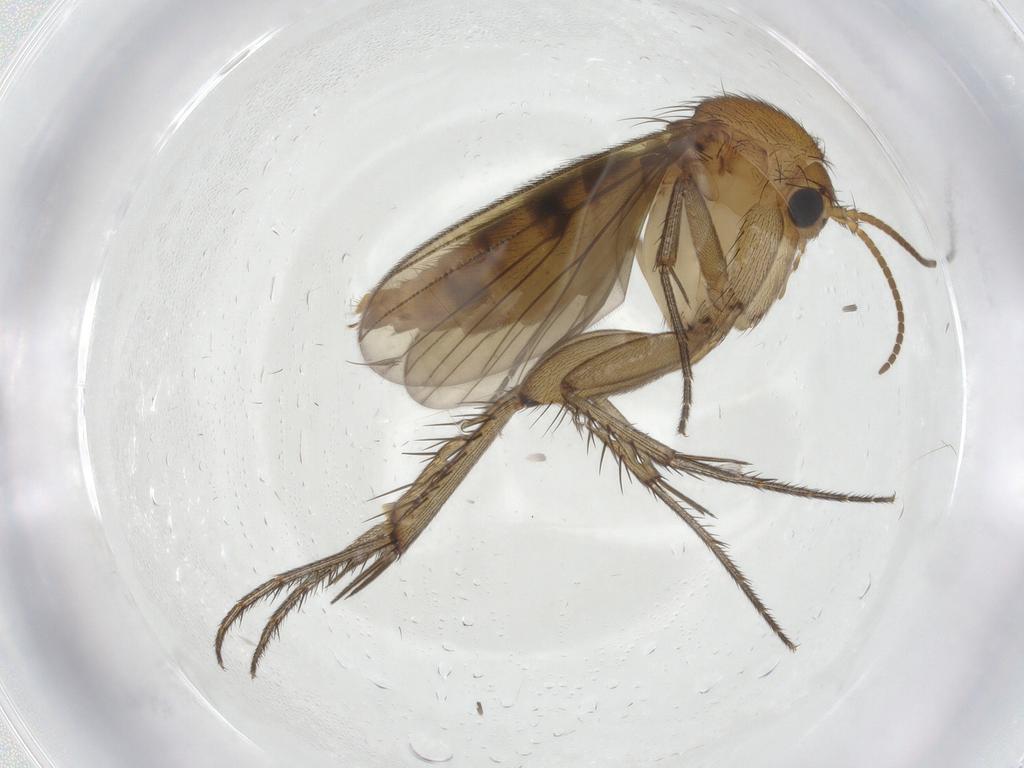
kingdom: Animalia
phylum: Arthropoda
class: Insecta
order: Diptera
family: Mycetophilidae
